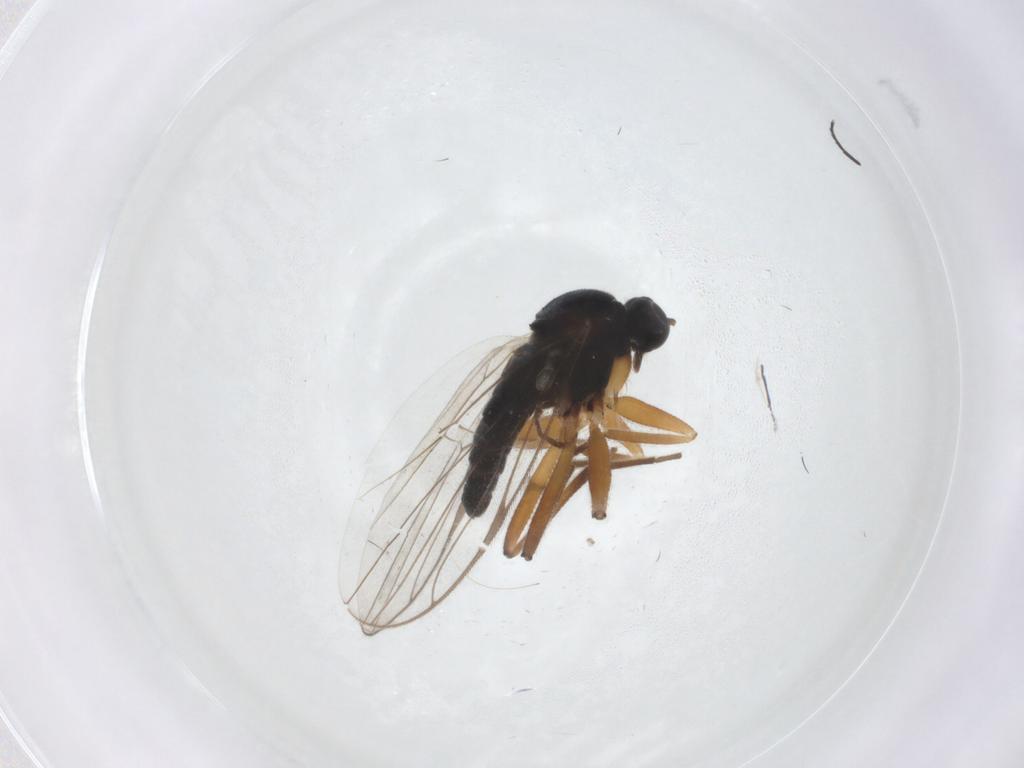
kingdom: Animalia
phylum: Arthropoda
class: Insecta
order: Diptera
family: Hybotidae
